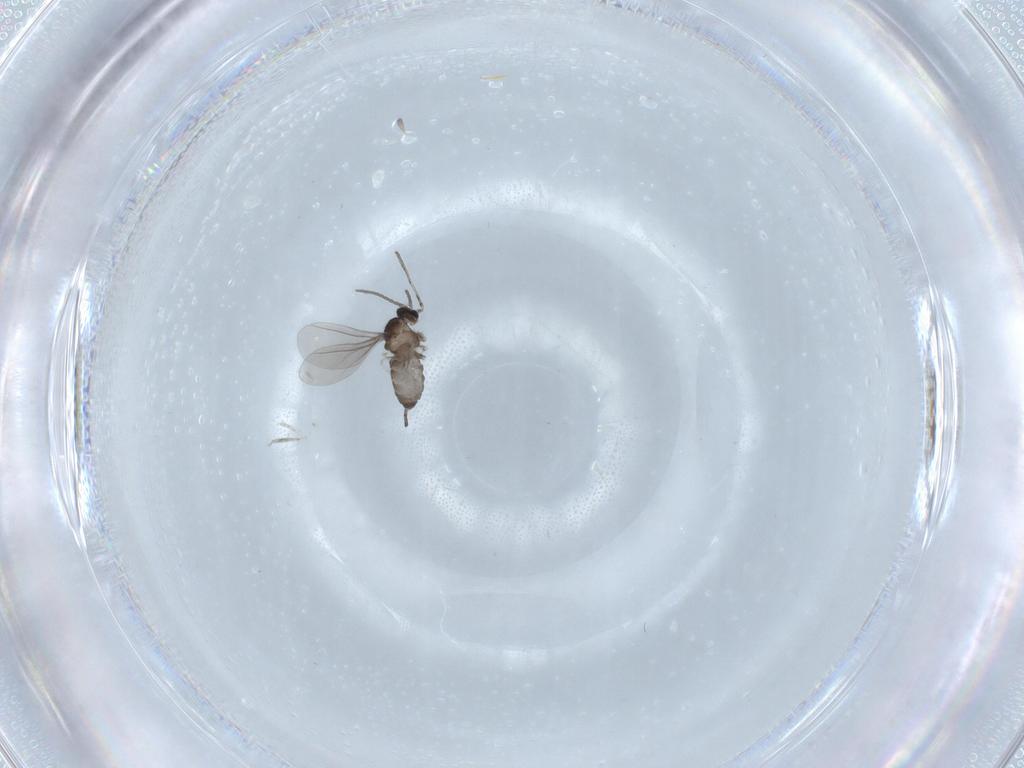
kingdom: Animalia
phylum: Arthropoda
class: Insecta
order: Diptera
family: Cecidomyiidae
